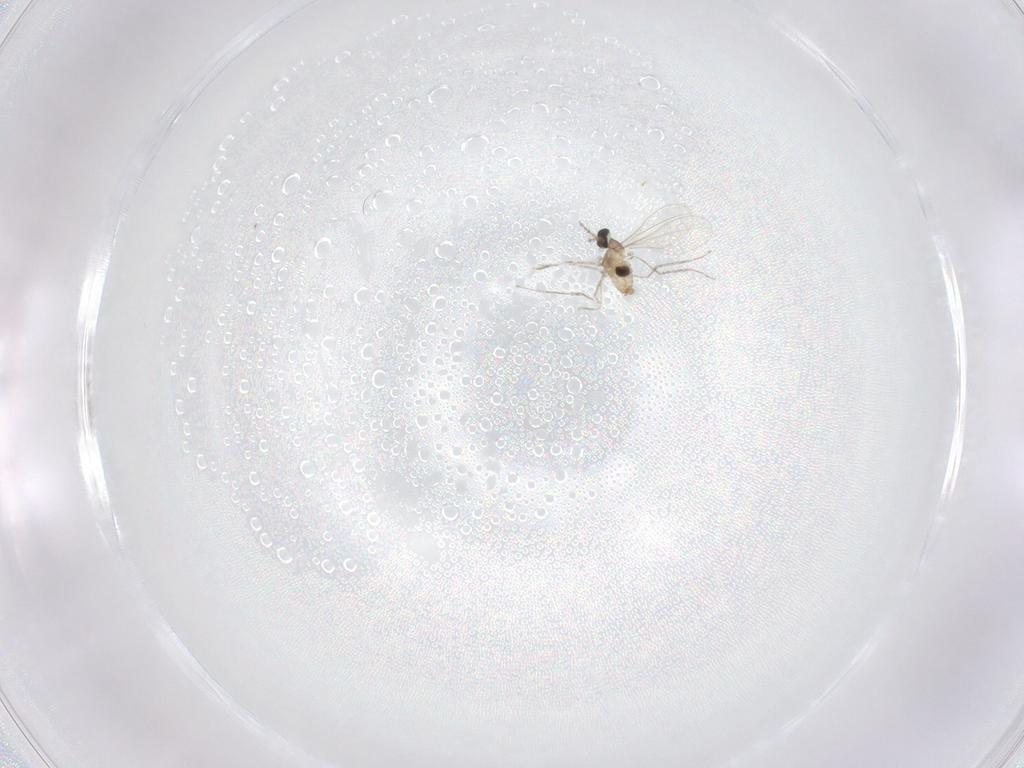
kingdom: Animalia
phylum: Arthropoda
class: Insecta
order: Diptera
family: Cecidomyiidae
